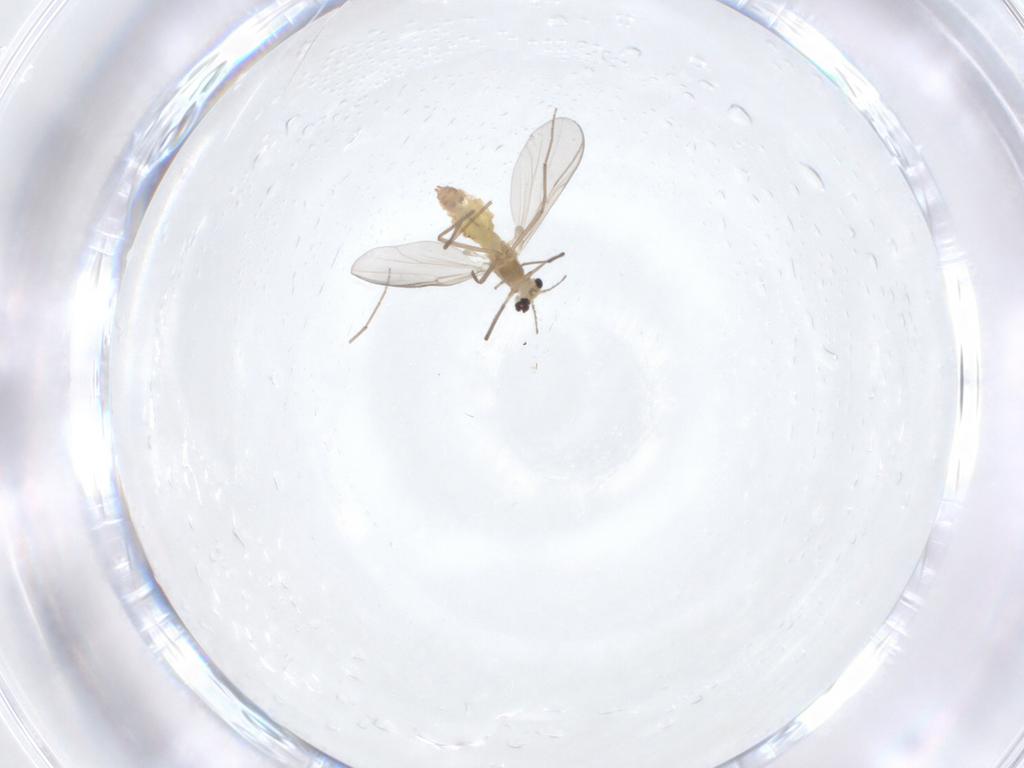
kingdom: Animalia
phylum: Arthropoda
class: Insecta
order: Diptera
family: Chironomidae
